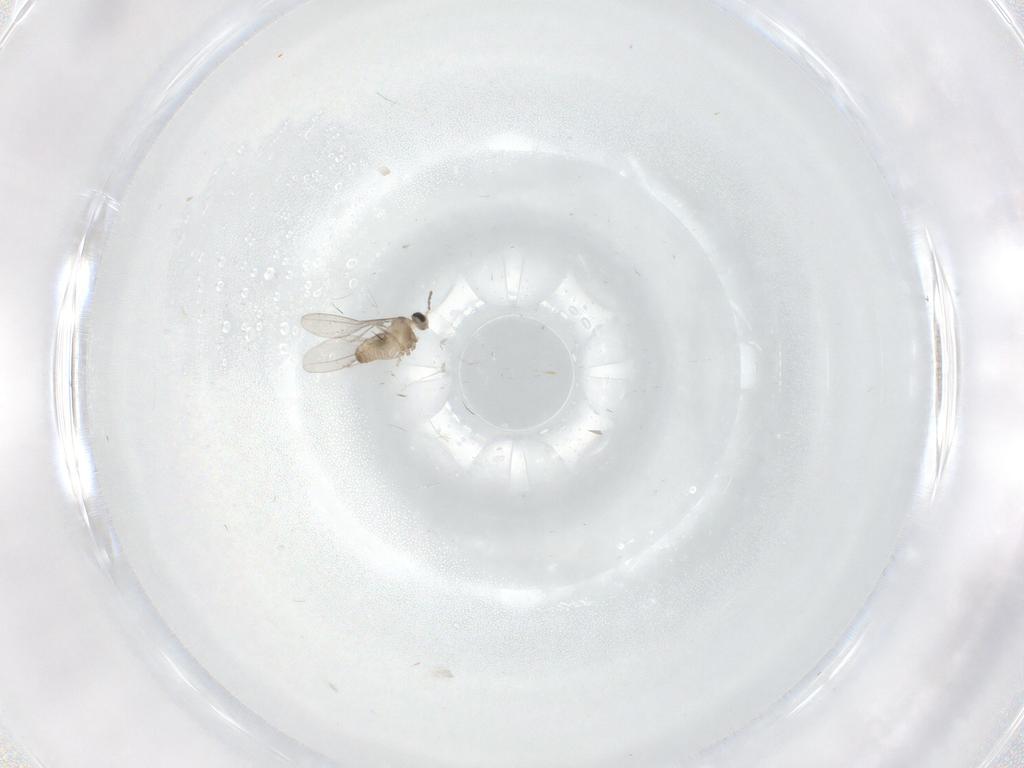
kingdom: Animalia
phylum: Arthropoda
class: Insecta
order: Diptera
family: Cecidomyiidae
